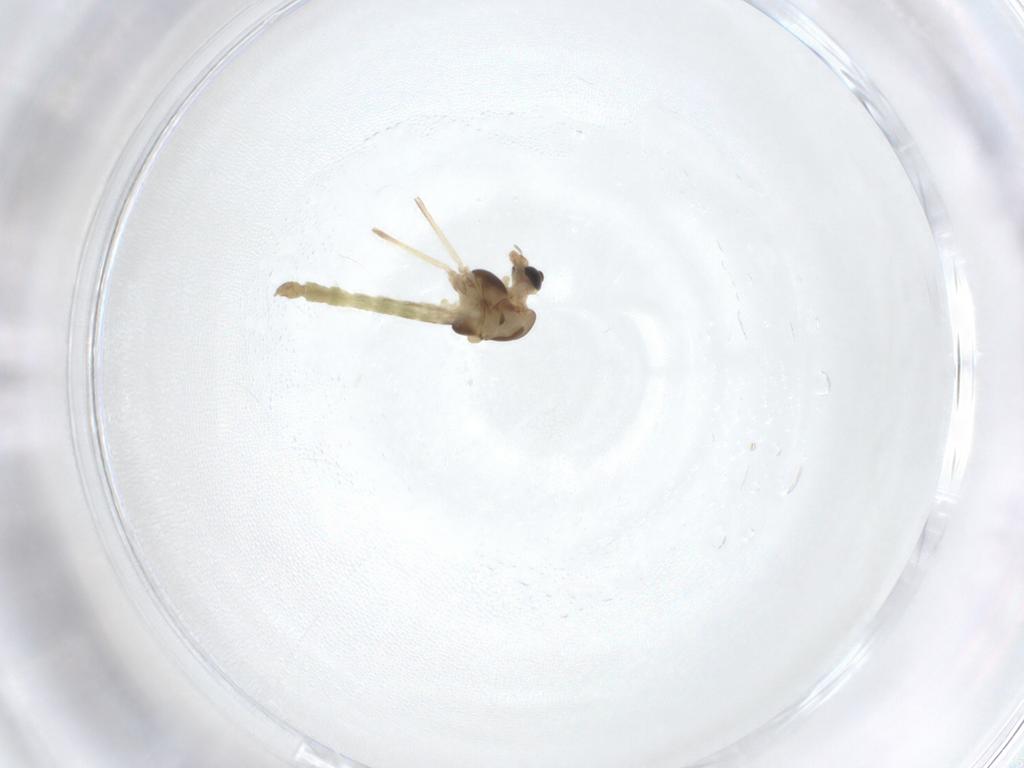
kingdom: Animalia
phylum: Arthropoda
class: Insecta
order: Diptera
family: Chironomidae
